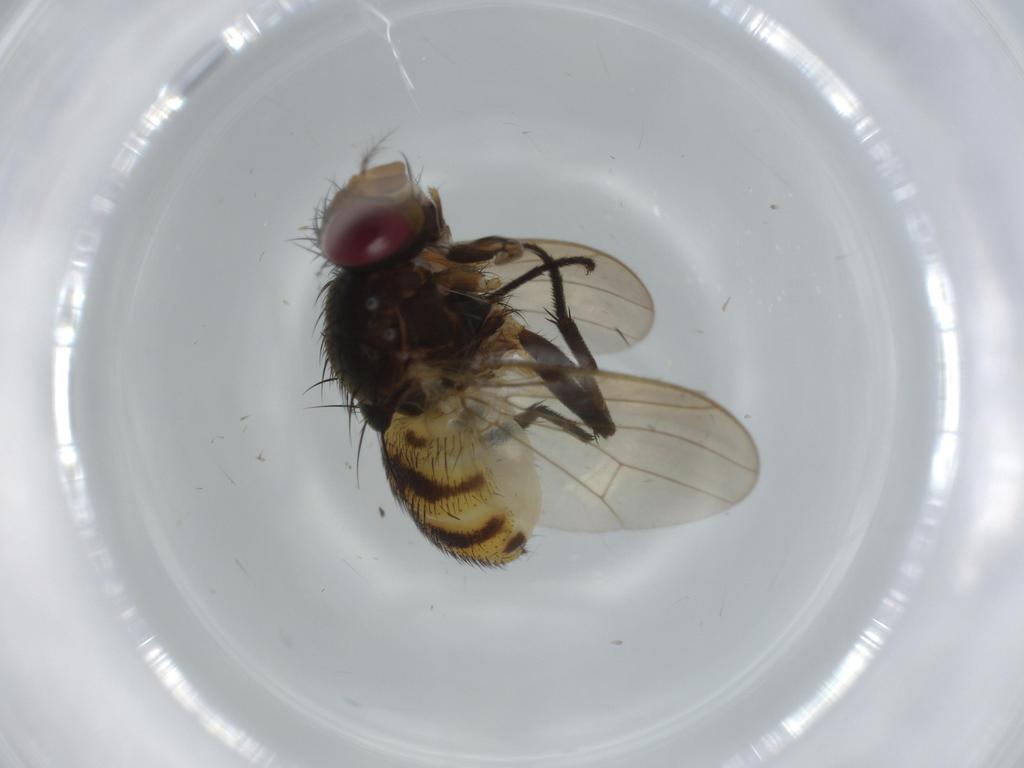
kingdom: Animalia
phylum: Arthropoda
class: Insecta
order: Diptera
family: Anthomyiidae
